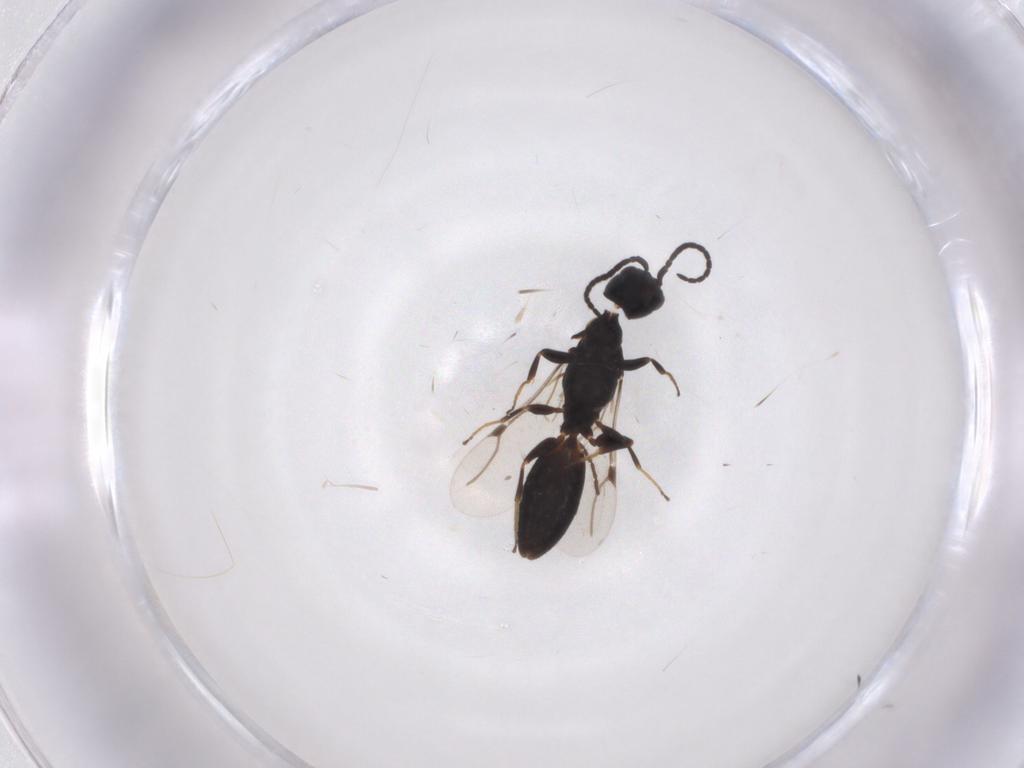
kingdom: Animalia
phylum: Arthropoda
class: Insecta
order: Hymenoptera
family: Bethylidae
